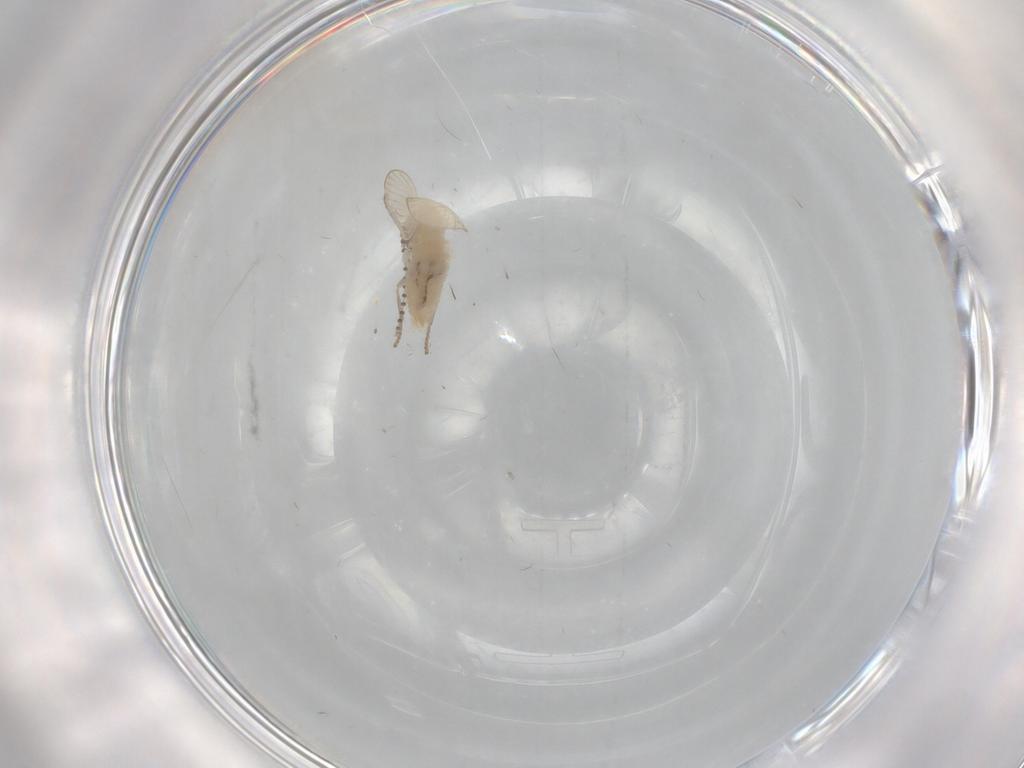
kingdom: Animalia
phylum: Arthropoda
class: Insecta
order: Diptera
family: Psychodidae
